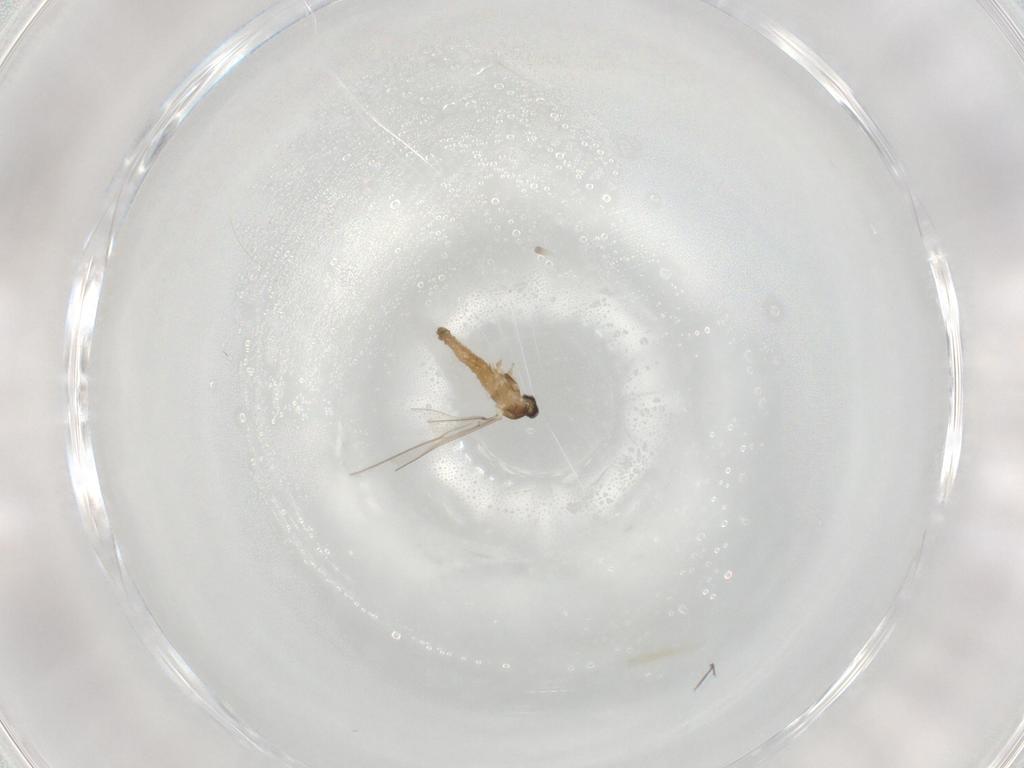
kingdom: Animalia
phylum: Arthropoda
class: Insecta
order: Diptera
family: Cecidomyiidae
